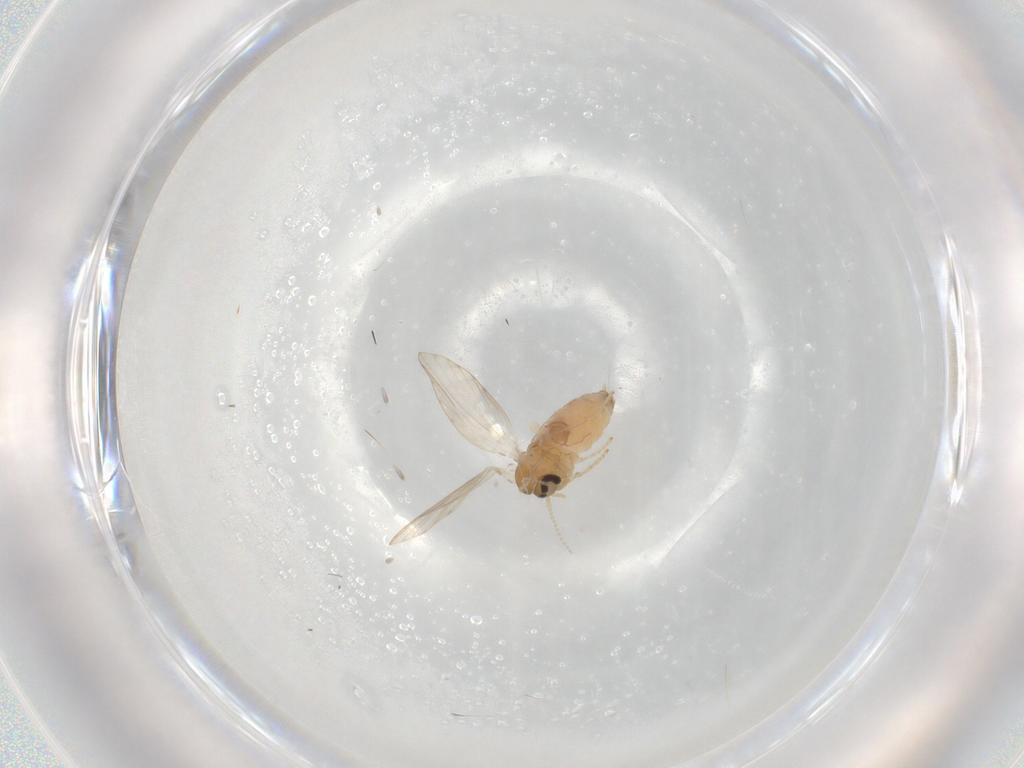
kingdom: Animalia
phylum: Arthropoda
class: Insecta
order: Diptera
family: Psychodidae
